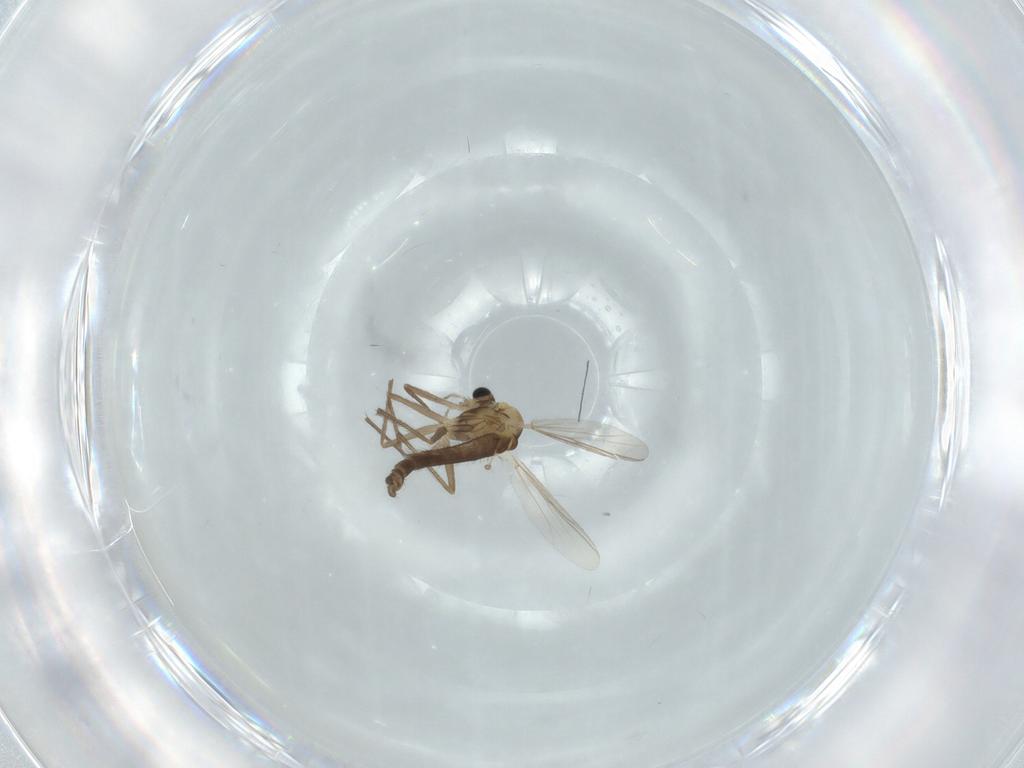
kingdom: Animalia
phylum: Arthropoda
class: Insecta
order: Diptera
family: Chironomidae
